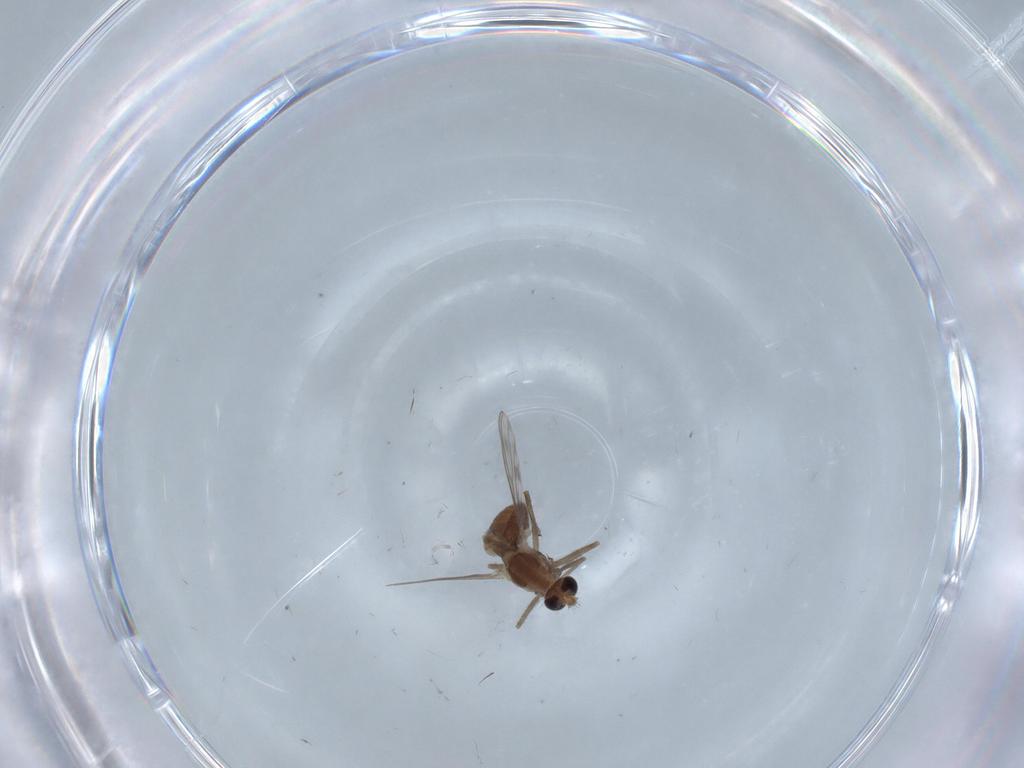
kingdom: Animalia
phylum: Arthropoda
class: Insecta
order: Diptera
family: Chironomidae
